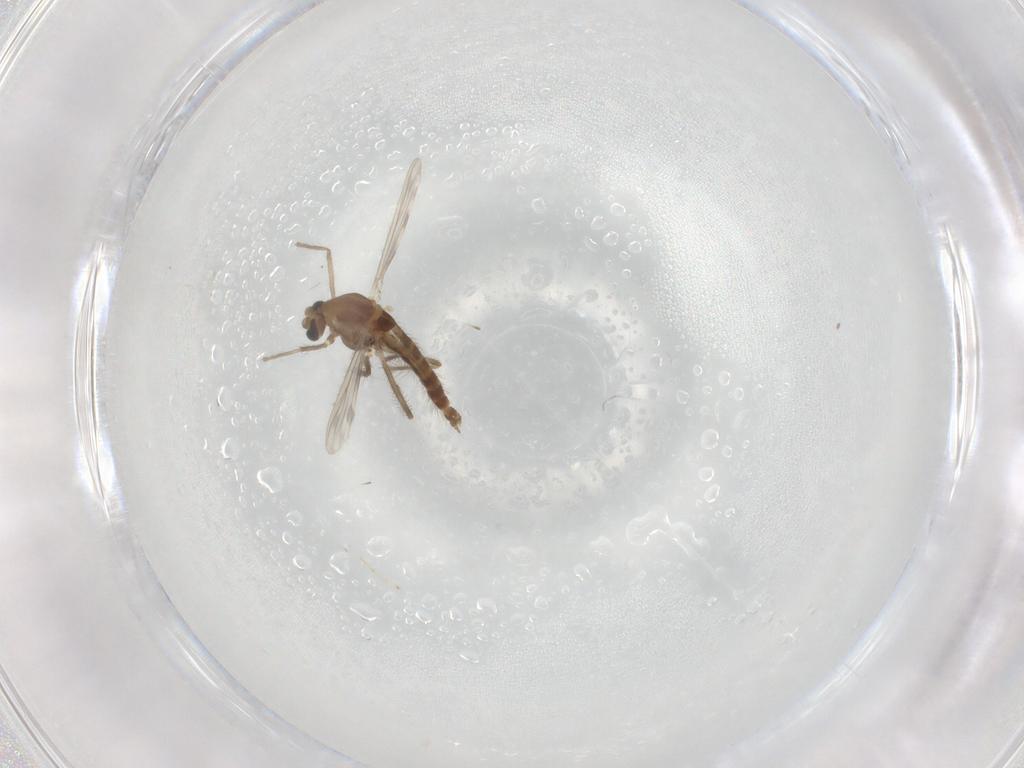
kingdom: Animalia
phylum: Arthropoda
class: Insecta
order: Diptera
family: Chironomidae
